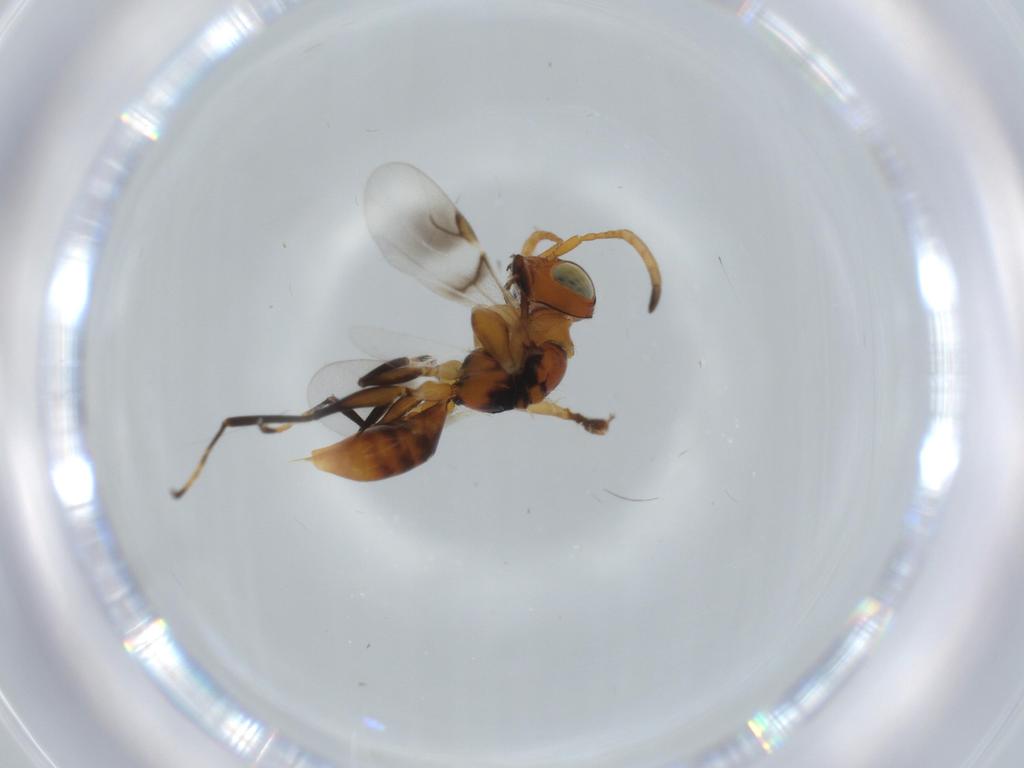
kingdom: Animalia
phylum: Arthropoda
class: Insecta
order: Hymenoptera
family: Dryinidae
